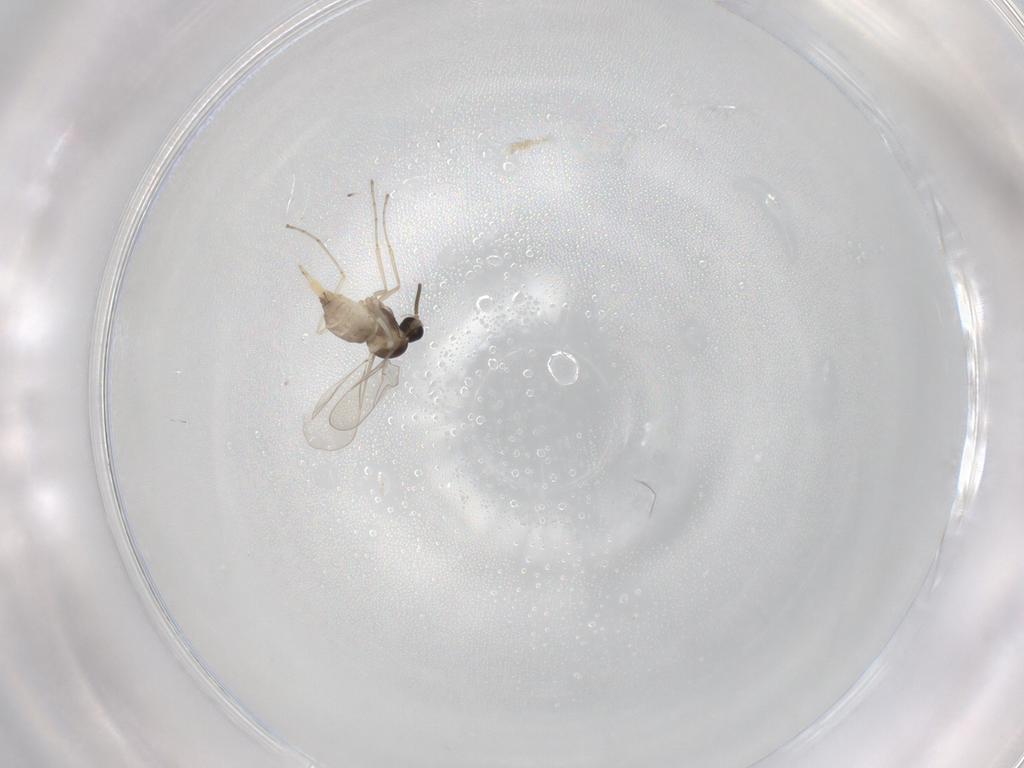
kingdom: Animalia
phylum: Arthropoda
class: Insecta
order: Diptera
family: Cecidomyiidae
